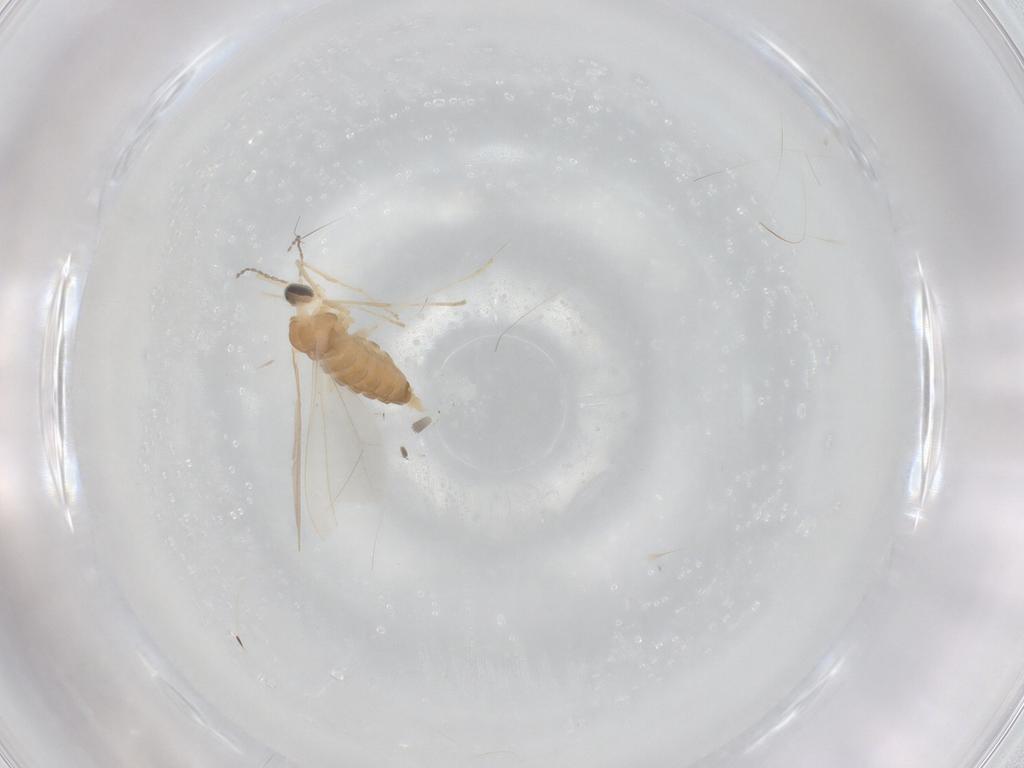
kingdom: Animalia
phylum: Arthropoda
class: Insecta
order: Diptera
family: Cecidomyiidae
